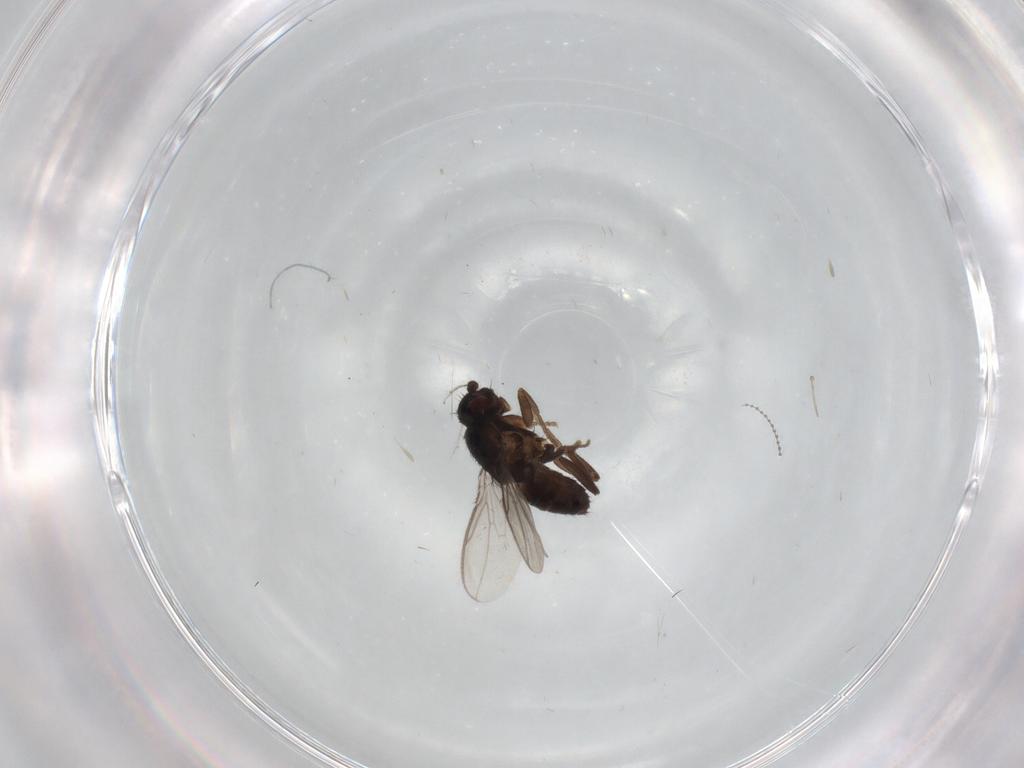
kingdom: Animalia
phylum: Arthropoda
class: Insecta
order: Diptera
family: Sphaeroceridae
